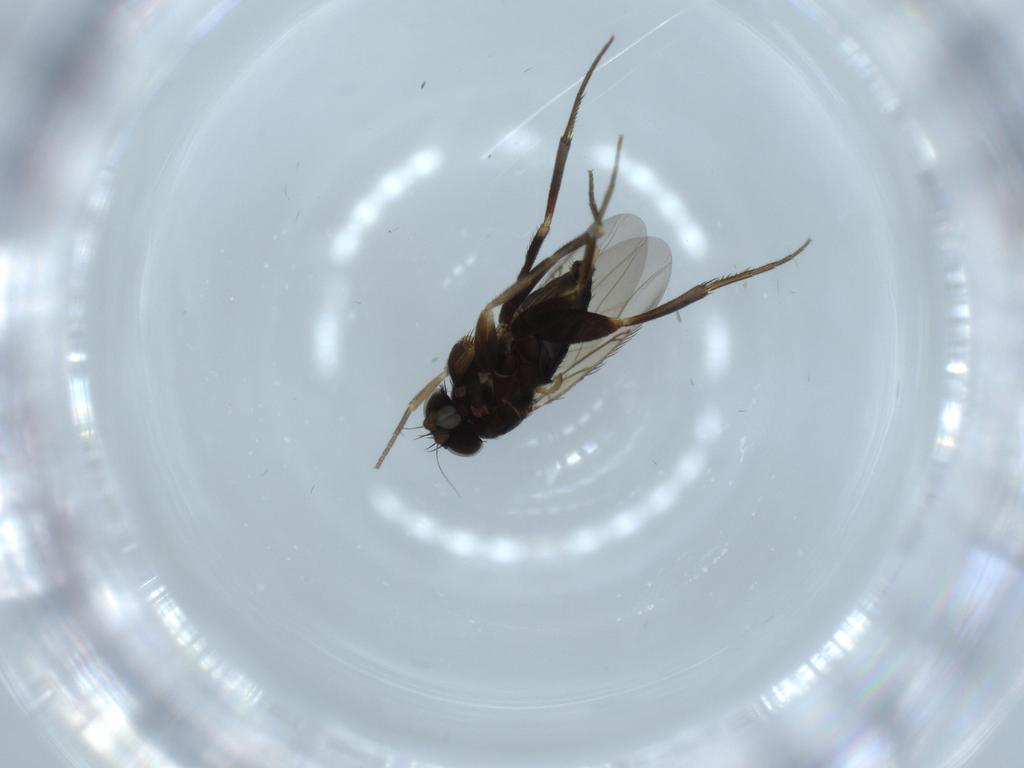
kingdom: Animalia
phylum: Arthropoda
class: Insecta
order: Diptera
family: Phoridae
